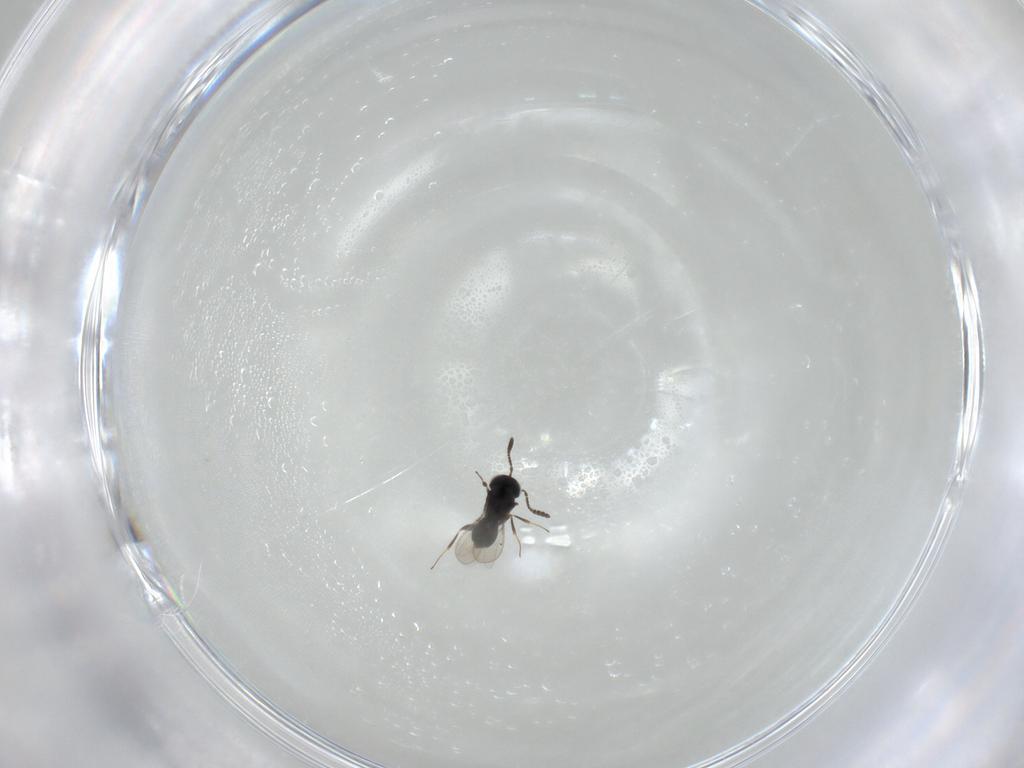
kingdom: Animalia
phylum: Arthropoda
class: Insecta
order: Hymenoptera
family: Scelionidae
